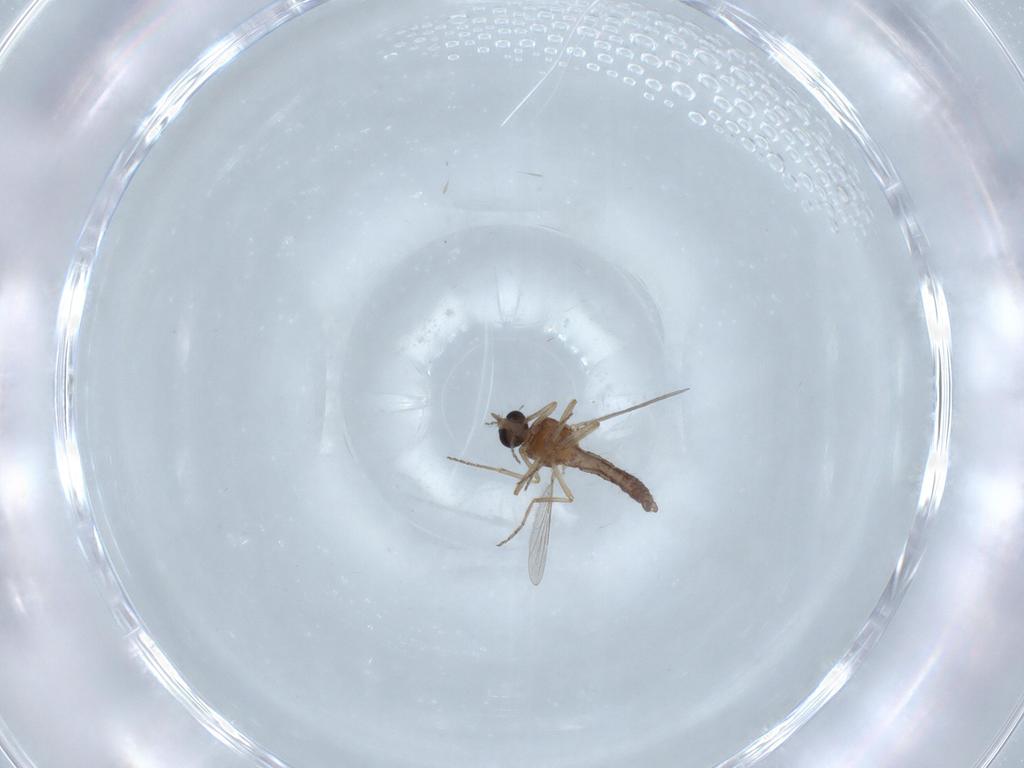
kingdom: Animalia
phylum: Arthropoda
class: Insecta
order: Diptera
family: Ceratopogonidae
